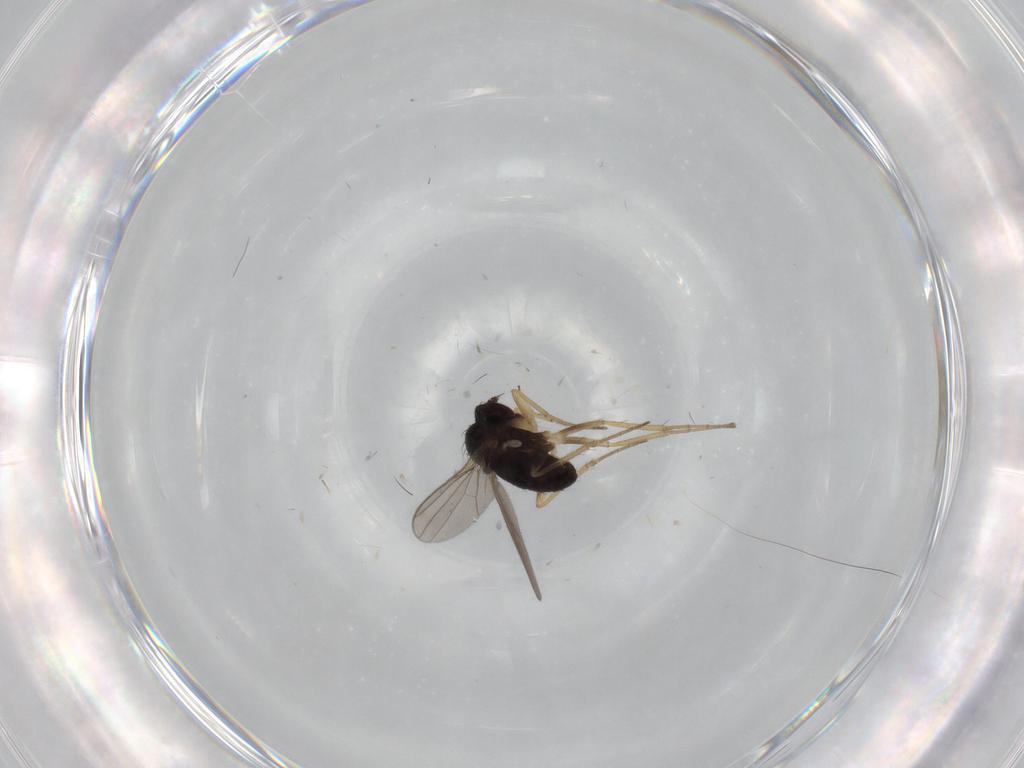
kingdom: Animalia
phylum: Arthropoda
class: Insecta
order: Diptera
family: Dolichopodidae
